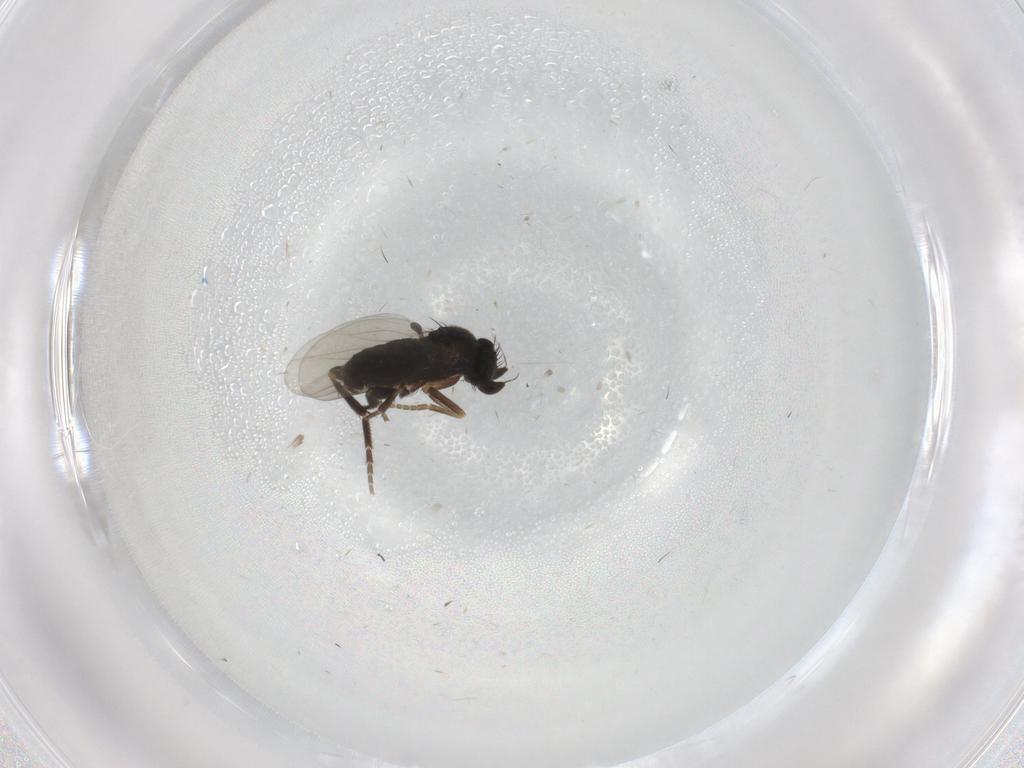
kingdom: Animalia
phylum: Arthropoda
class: Insecta
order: Diptera
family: Phoridae
